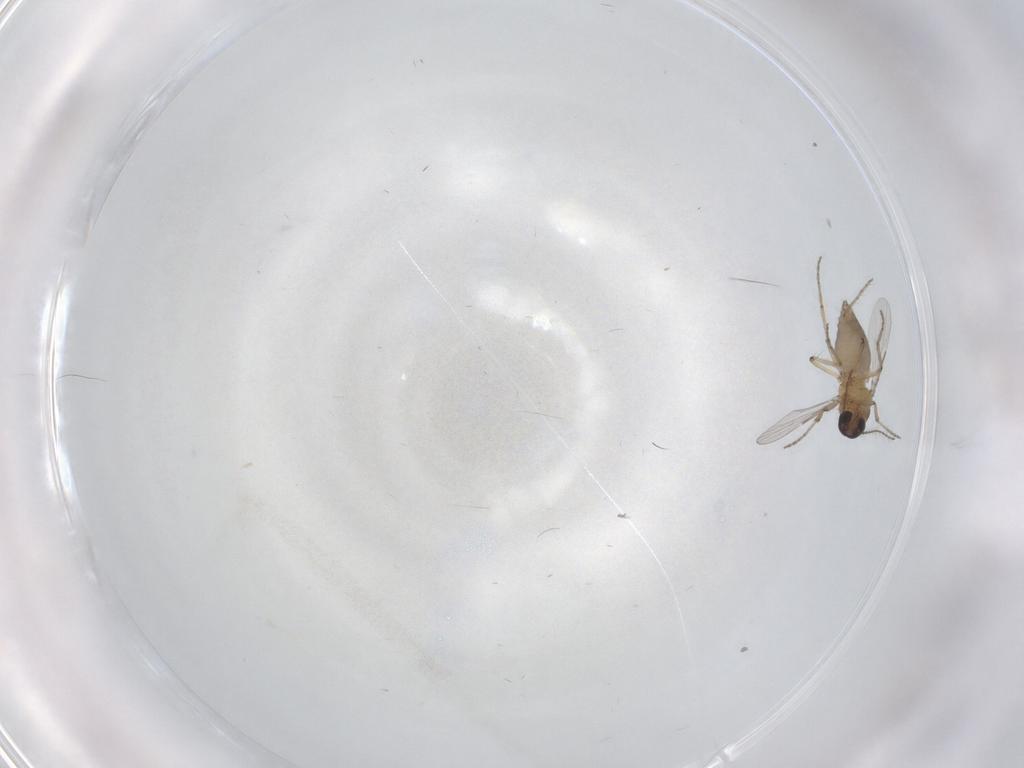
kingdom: Animalia
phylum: Arthropoda
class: Insecta
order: Diptera
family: Ceratopogonidae
